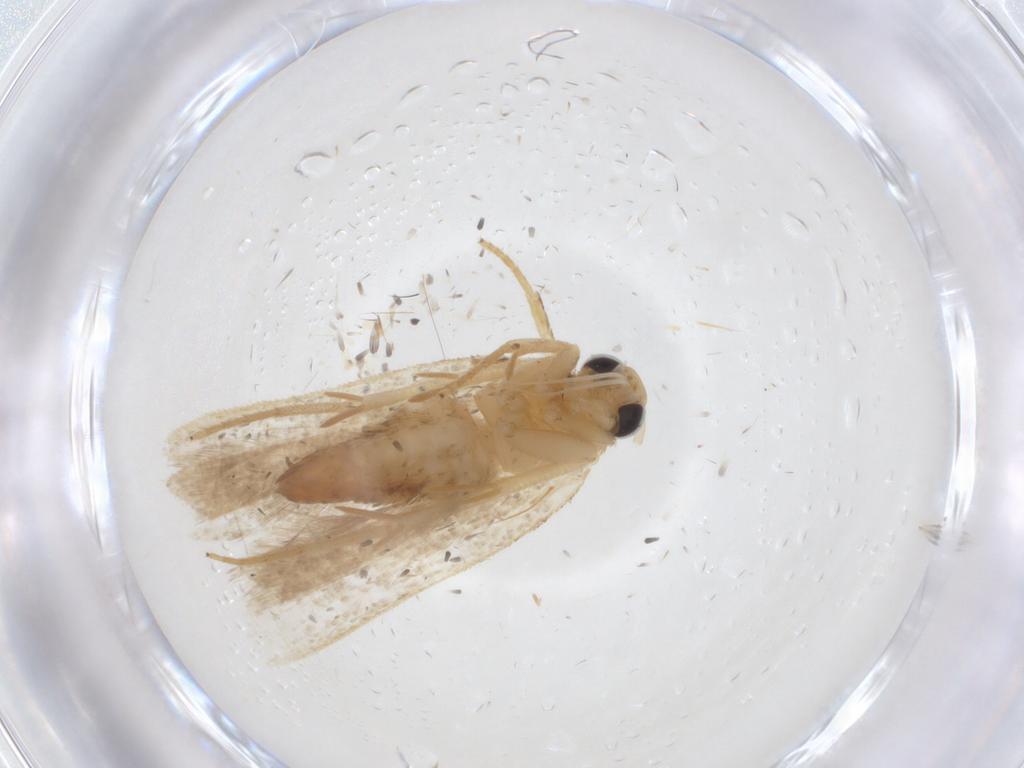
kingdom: Animalia
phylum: Arthropoda
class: Insecta
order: Lepidoptera
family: Gelechiidae
